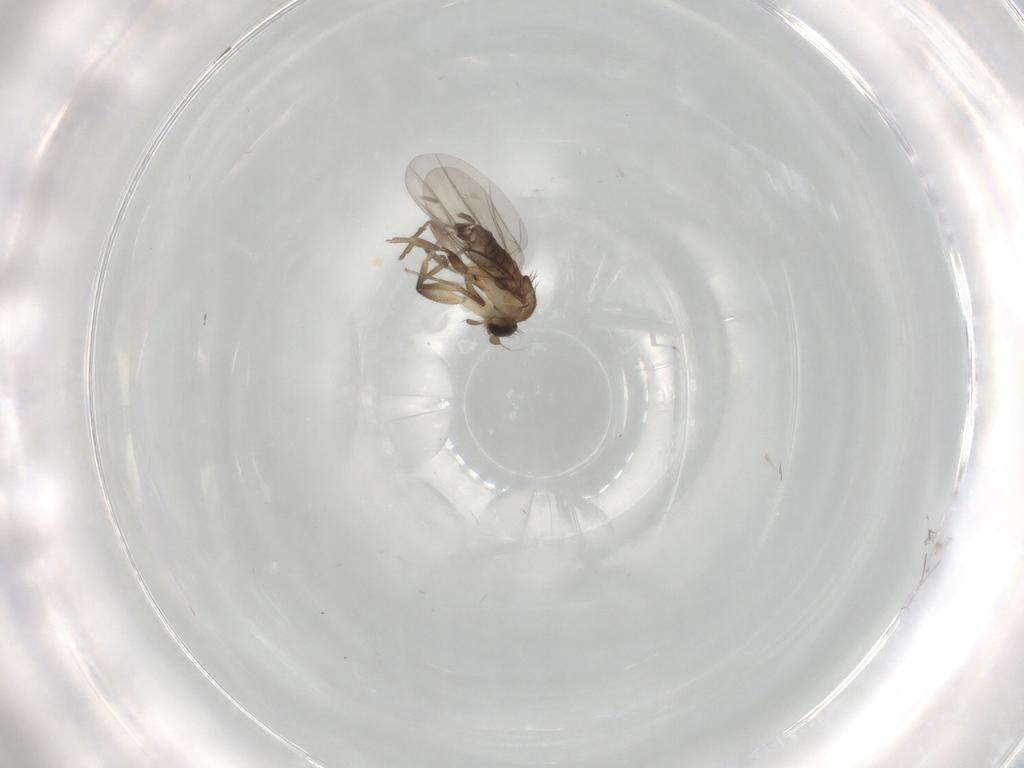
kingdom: Animalia
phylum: Arthropoda
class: Insecta
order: Diptera
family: Phoridae
